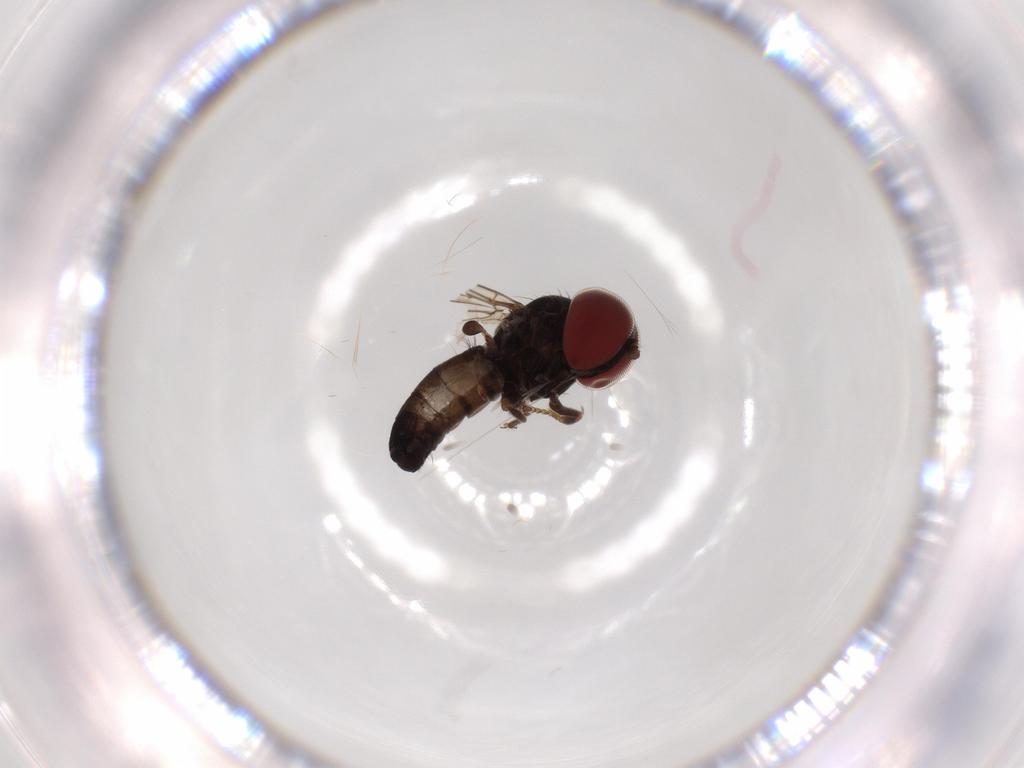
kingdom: Animalia
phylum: Arthropoda
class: Insecta
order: Diptera
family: Pipunculidae
